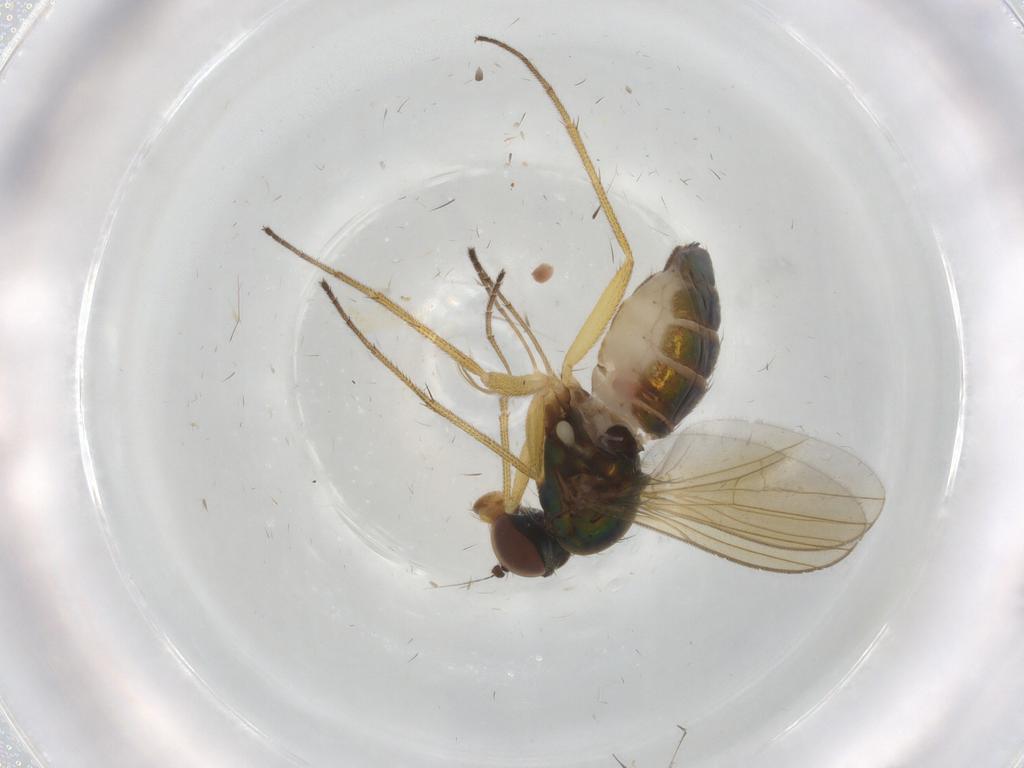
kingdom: Animalia
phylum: Arthropoda
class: Insecta
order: Diptera
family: Dolichopodidae
